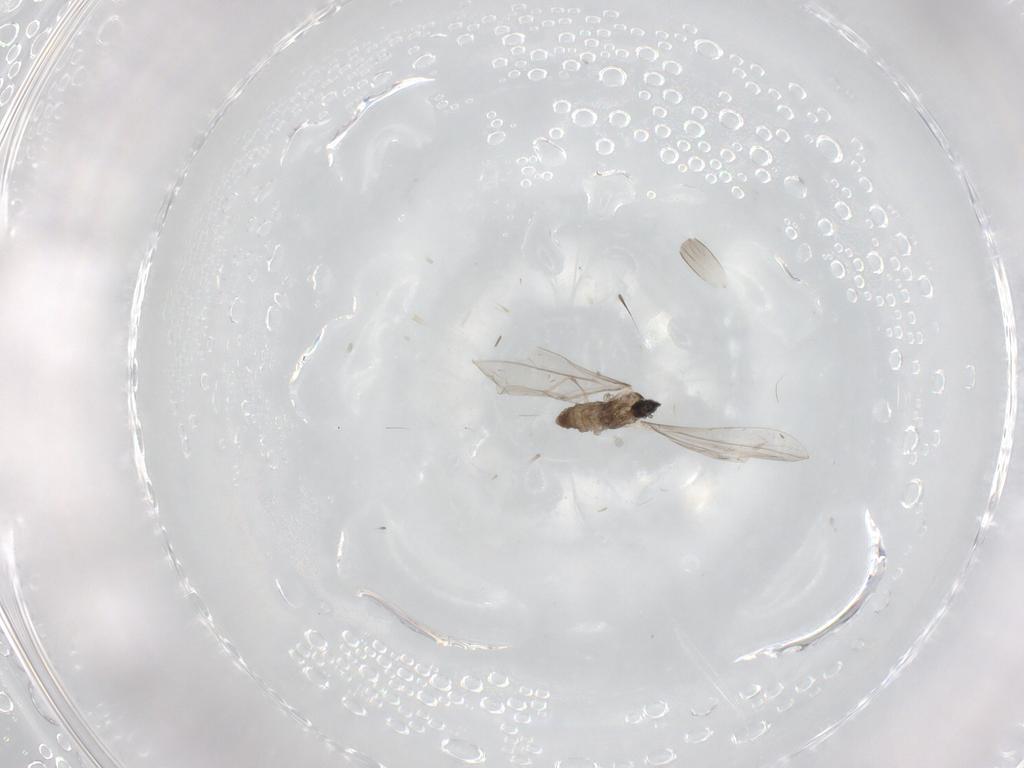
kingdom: Animalia
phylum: Arthropoda
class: Insecta
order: Diptera
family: Cecidomyiidae
